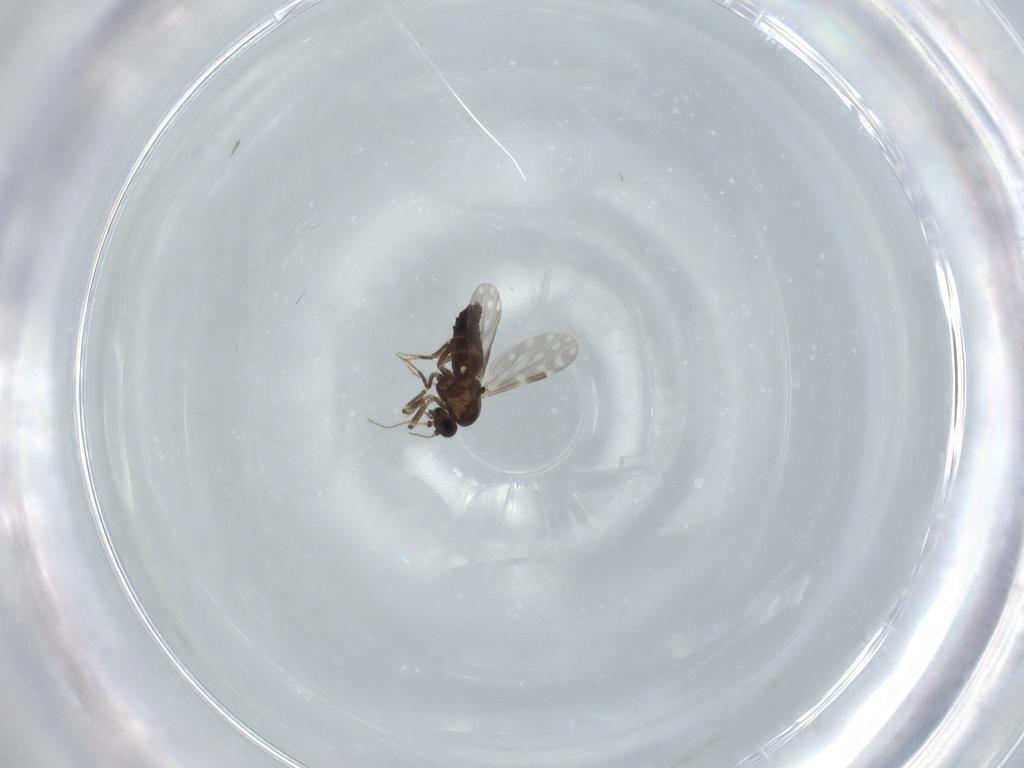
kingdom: Animalia
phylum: Arthropoda
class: Insecta
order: Diptera
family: Ceratopogonidae
